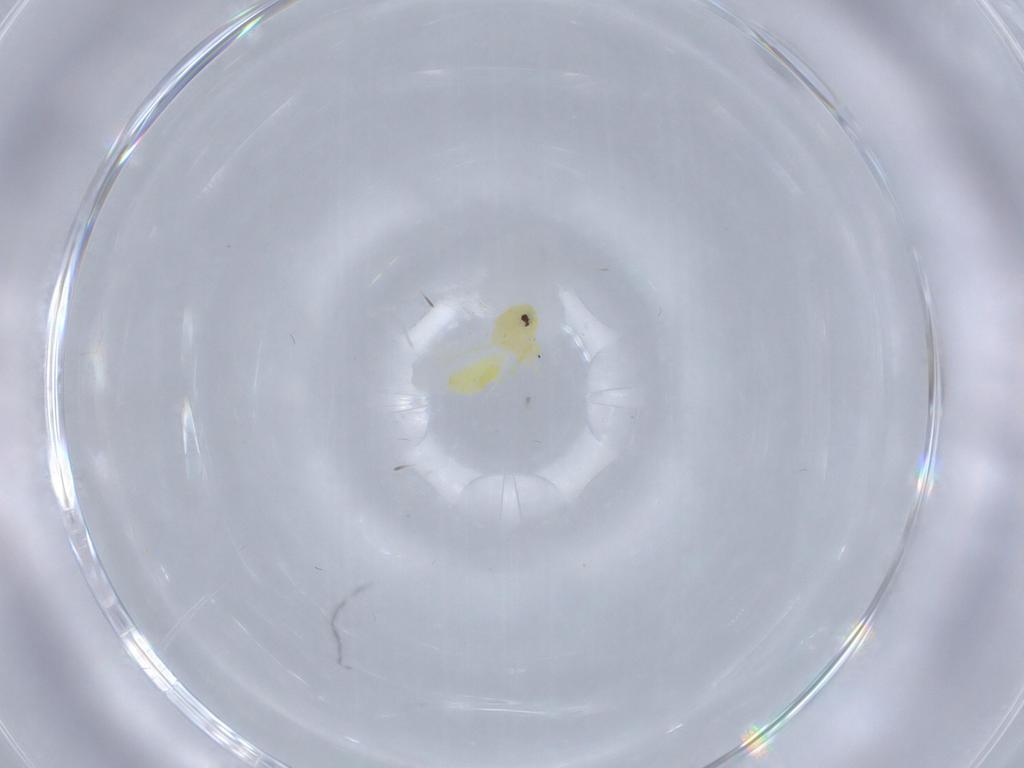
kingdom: Animalia
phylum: Arthropoda
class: Insecta
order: Hemiptera
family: Aleyrodidae
